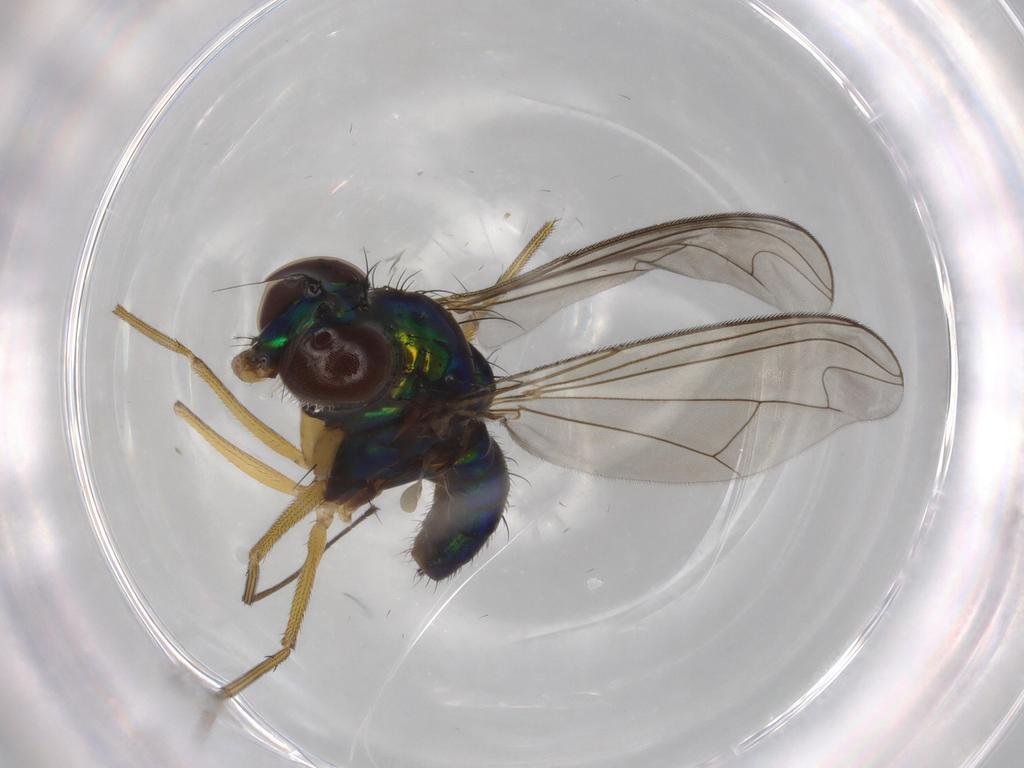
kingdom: Animalia
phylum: Arthropoda
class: Insecta
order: Diptera
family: Dolichopodidae
